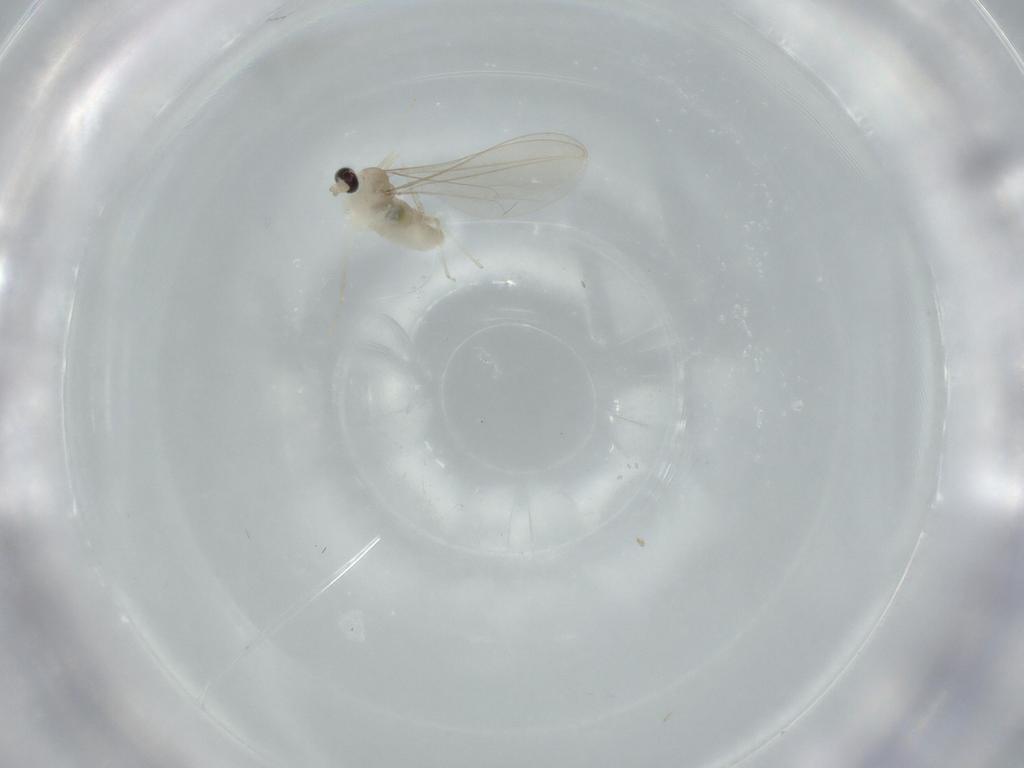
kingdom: Animalia
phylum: Arthropoda
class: Insecta
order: Diptera
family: Cecidomyiidae
